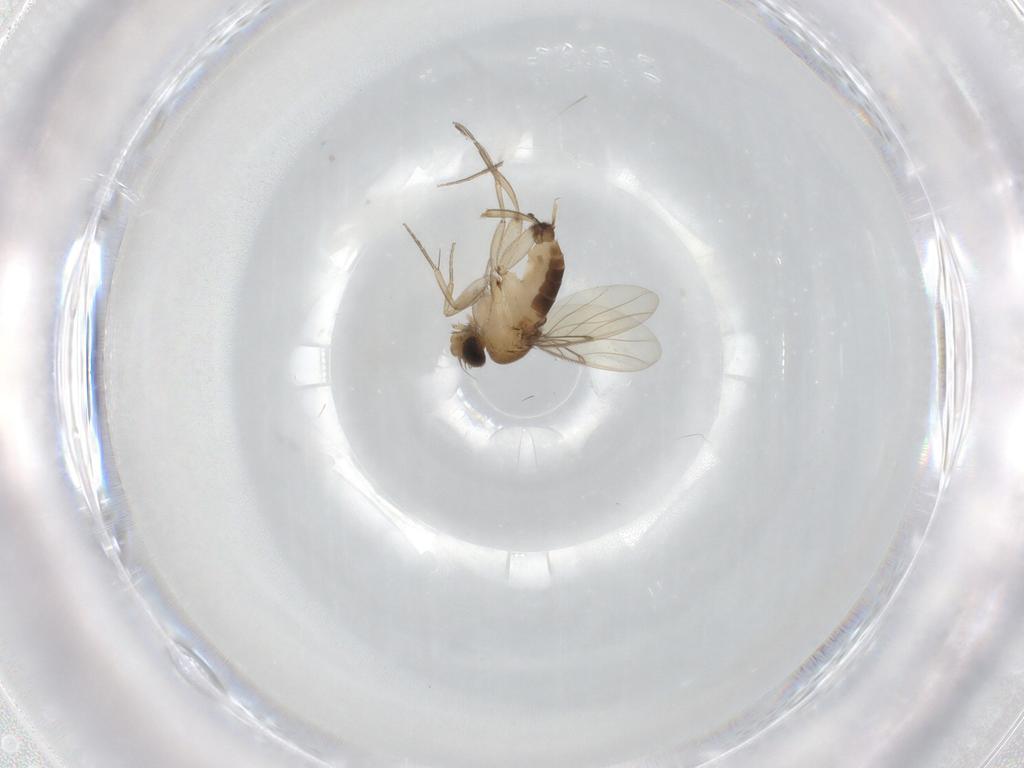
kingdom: Animalia
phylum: Arthropoda
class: Insecta
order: Diptera
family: Phoridae
